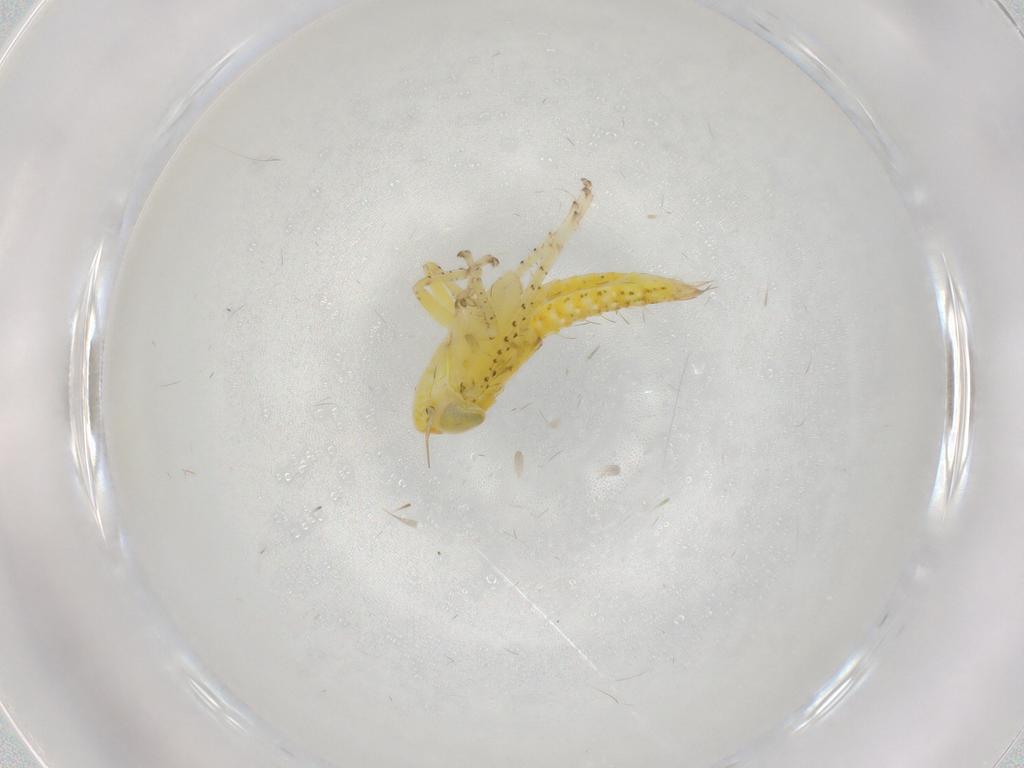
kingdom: Animalia
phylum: Arthropoda
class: Insecta
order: Hemiptera
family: Cicadellidae
